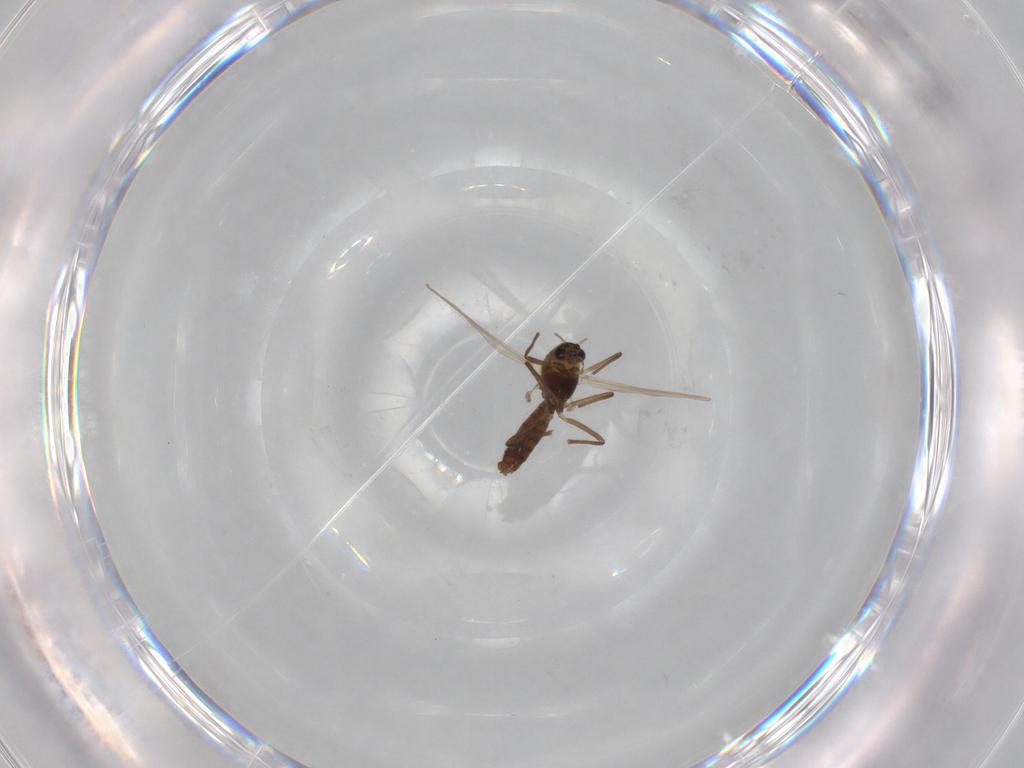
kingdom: Animalia
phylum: Arthropoda
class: Insecta
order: Diptera
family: Chironomidae
